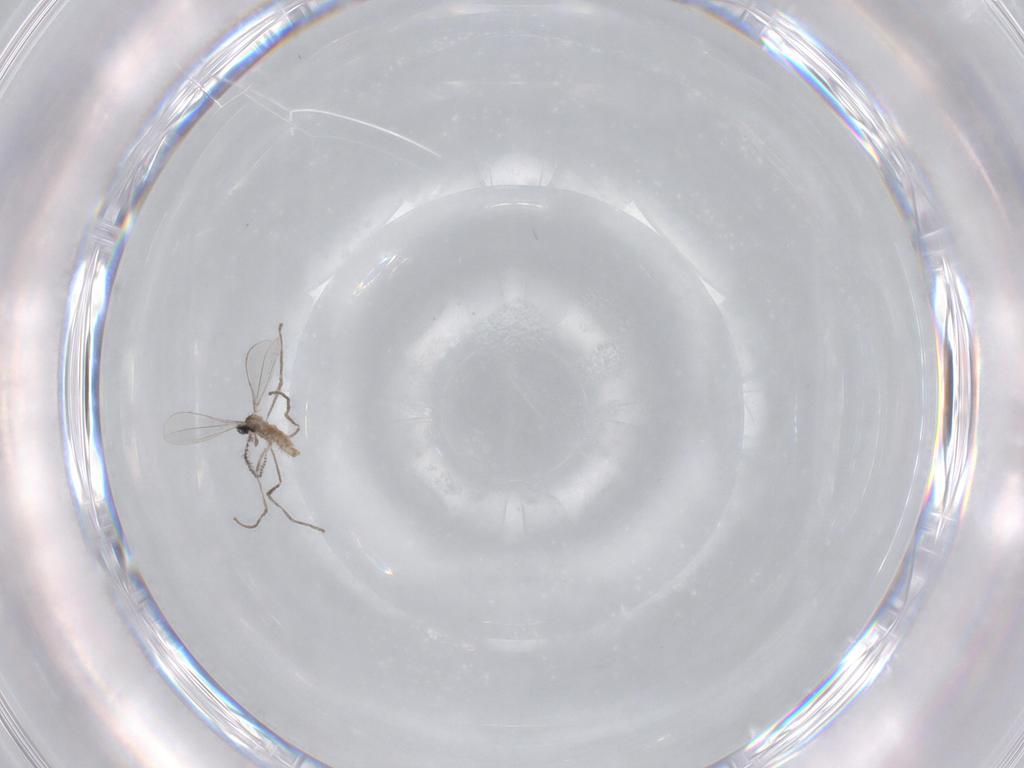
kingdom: Animalia
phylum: Arthropoda
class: Insecta
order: Diptera
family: Cecidomyiidae
